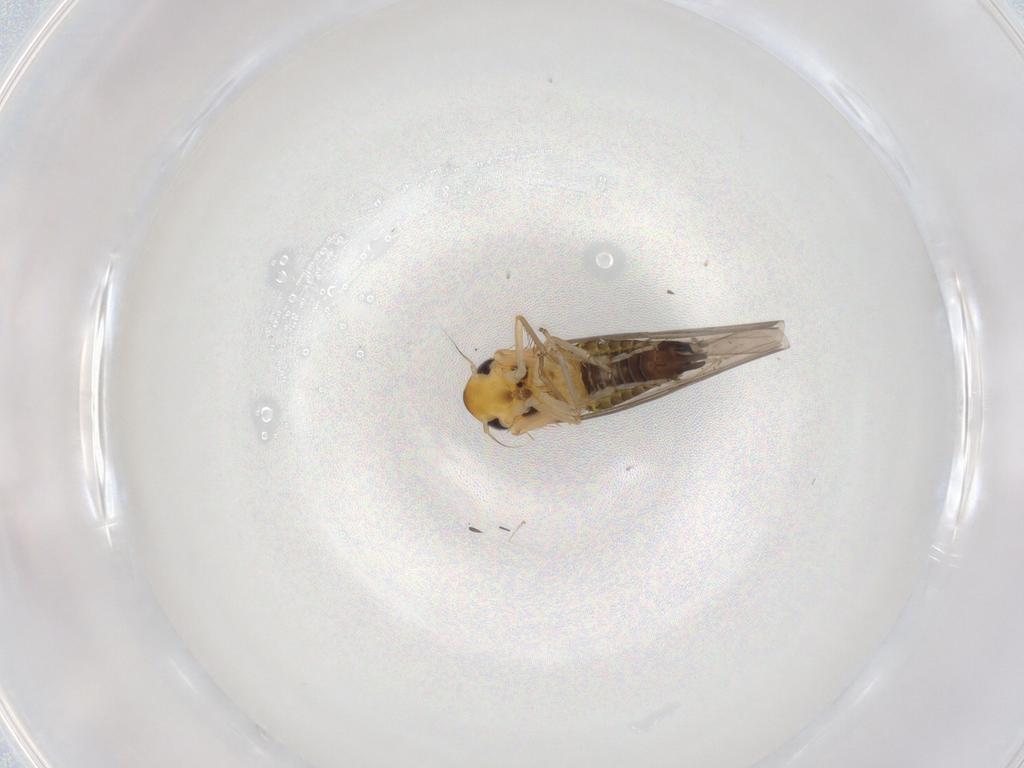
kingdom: Animalia
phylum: Arthropoda
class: Insecta
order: Hemiptera
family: Cicadellidae
